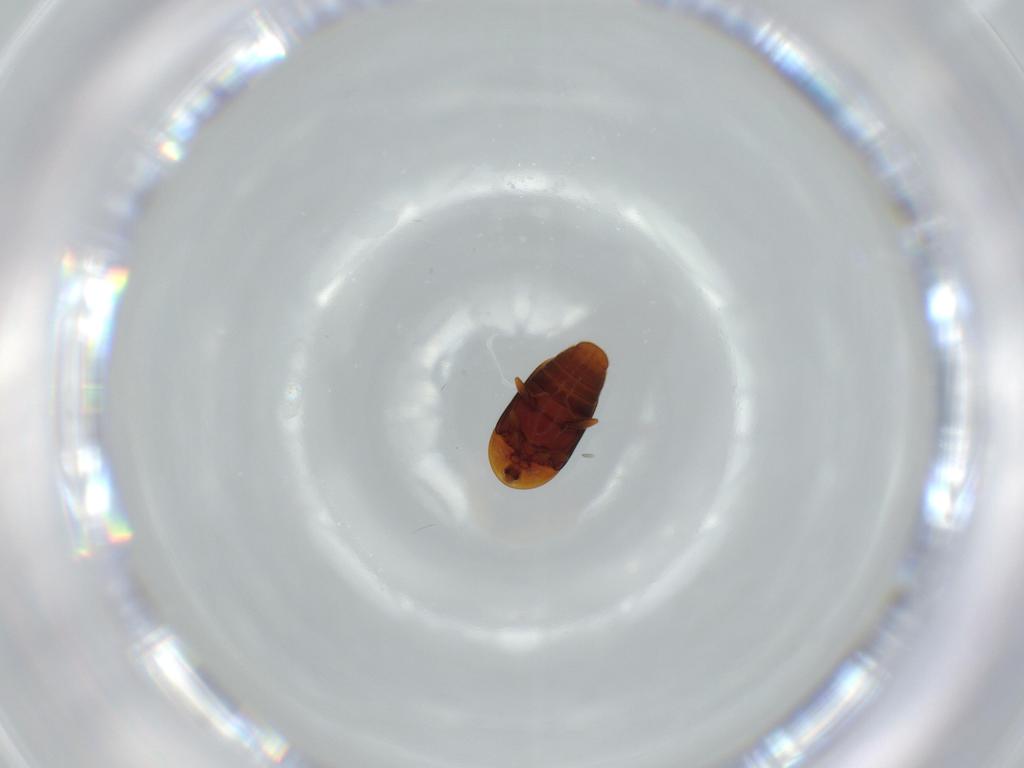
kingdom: Animalia
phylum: Arthropoda
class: Insecta
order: Coleoptera
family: Corylophidae
